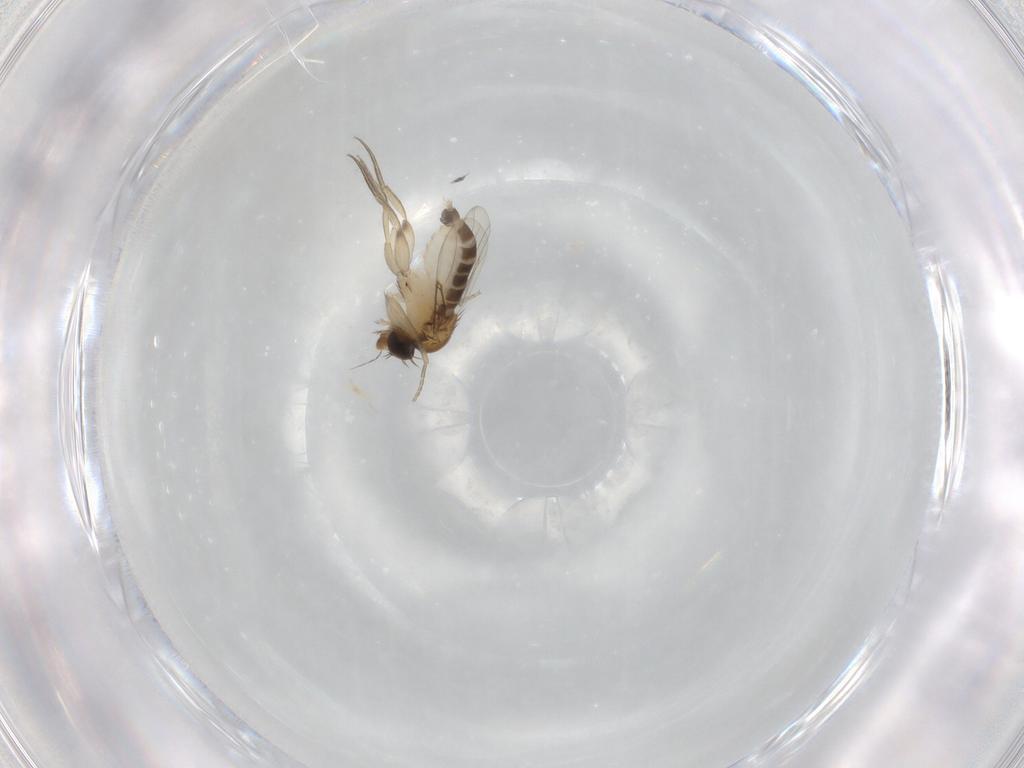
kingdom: Animalia
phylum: Arthropoda
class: Insecta
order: Diptera
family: Phoridae
